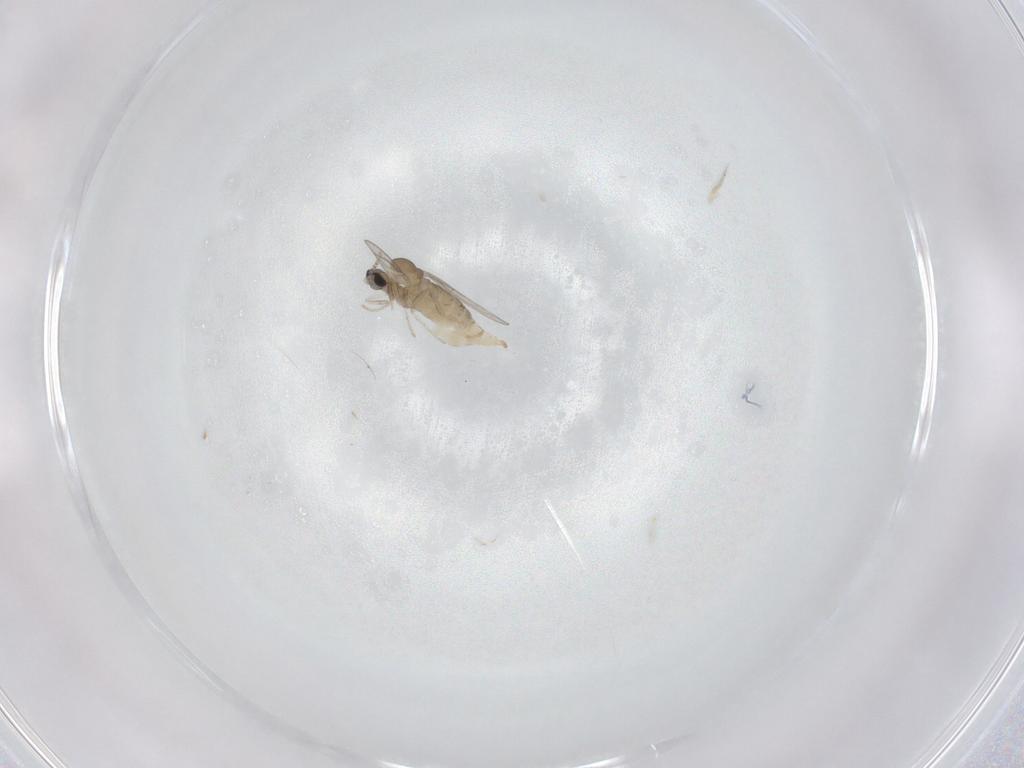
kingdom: Animalia
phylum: Arthropoda
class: Insecta
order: Diptera
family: Cecidomyiidae
